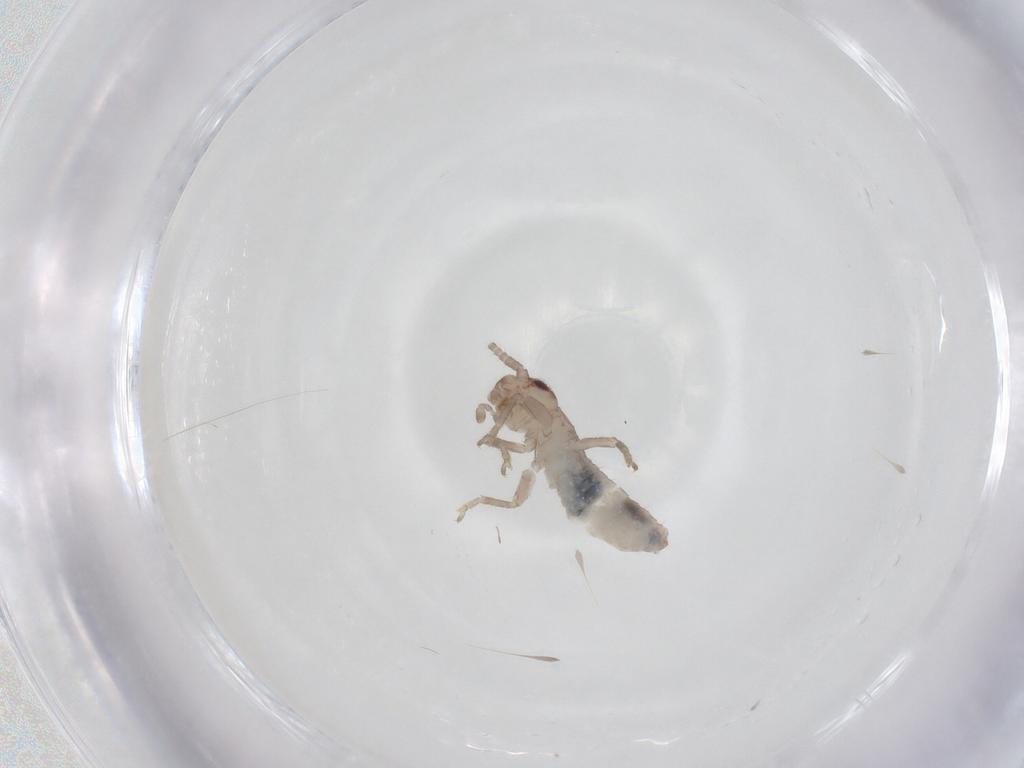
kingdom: Animalia
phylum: Arthropoda
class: Insecta
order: Orthoptera
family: Mogoplistidae
